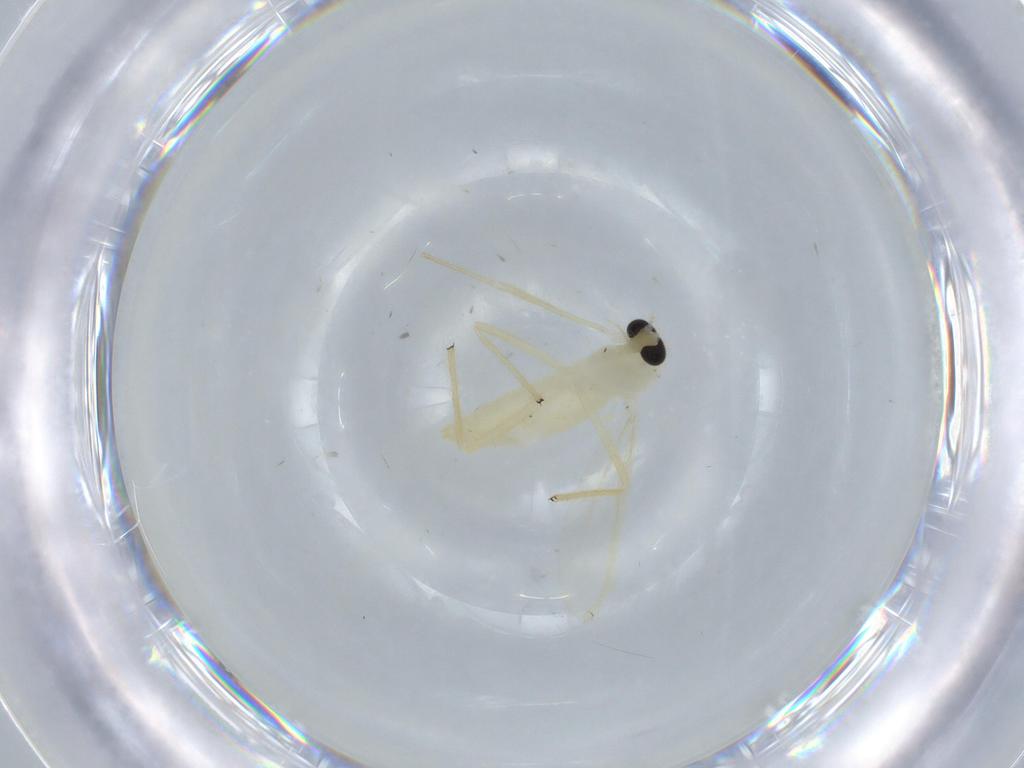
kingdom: Animalia
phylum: Arthropoda
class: Insecta
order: Diptera
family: Chironomidae
